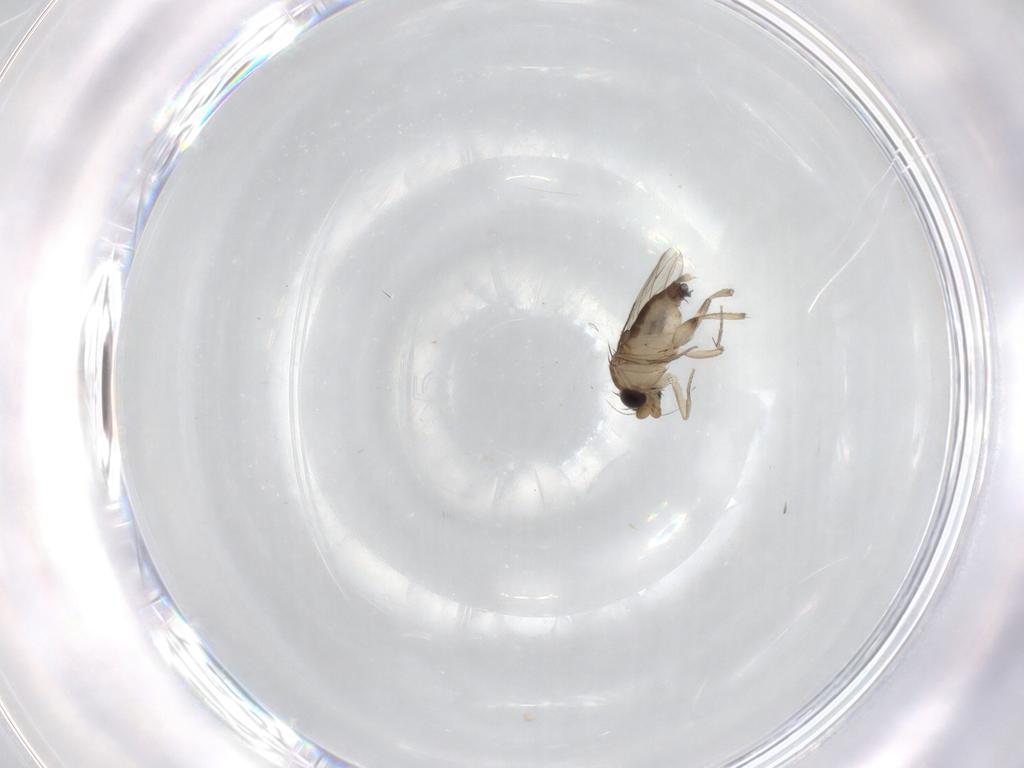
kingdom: Animalia
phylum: Arthropoda
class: Insecta
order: Diptera
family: Phoridae
